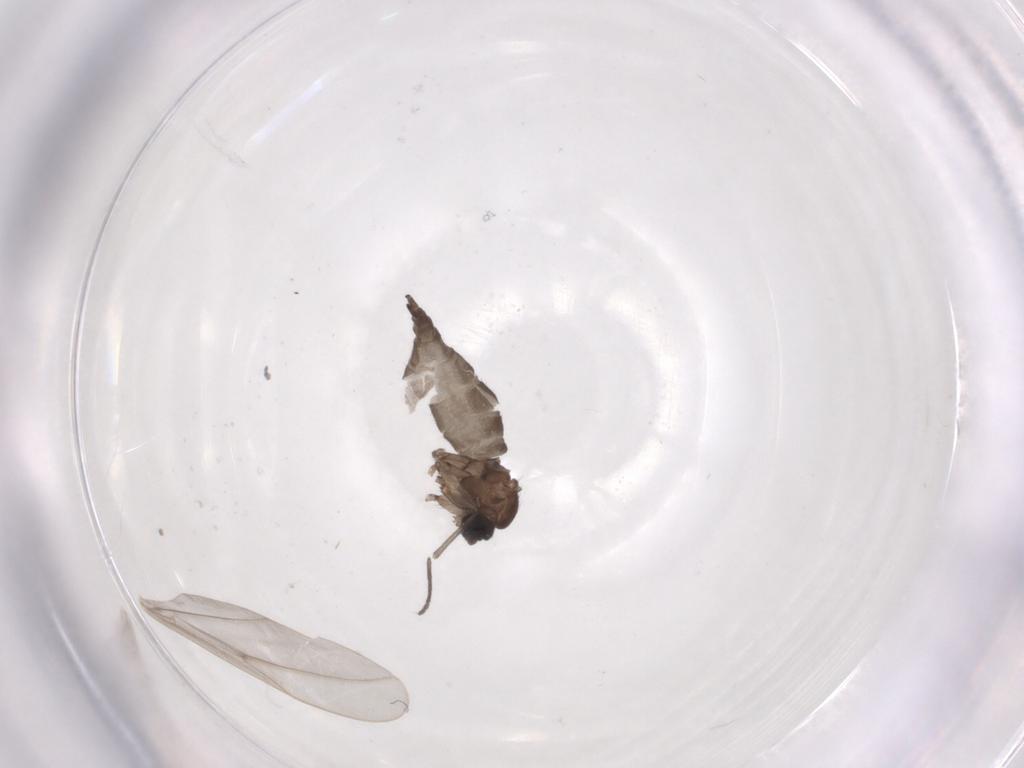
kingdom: Animalia
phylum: Arthropoda
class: Insecta
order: Diptera
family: Sciaridae
